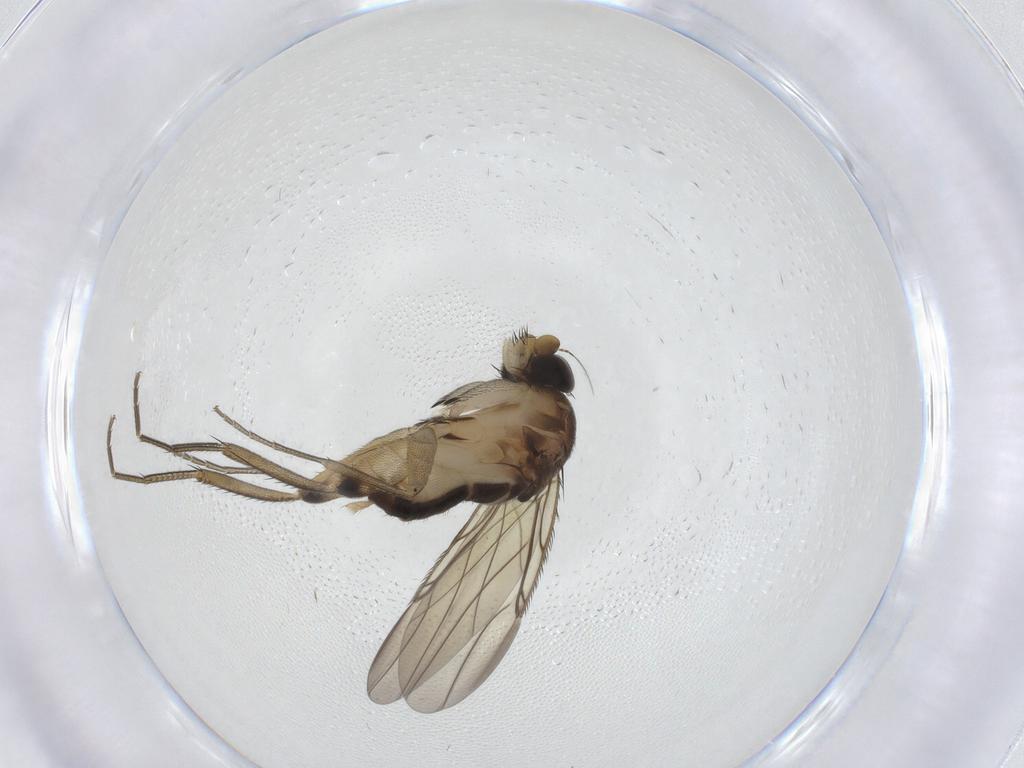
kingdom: Animalia
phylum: Arthropoda
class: Insecta
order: Diptera
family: Phoridae
